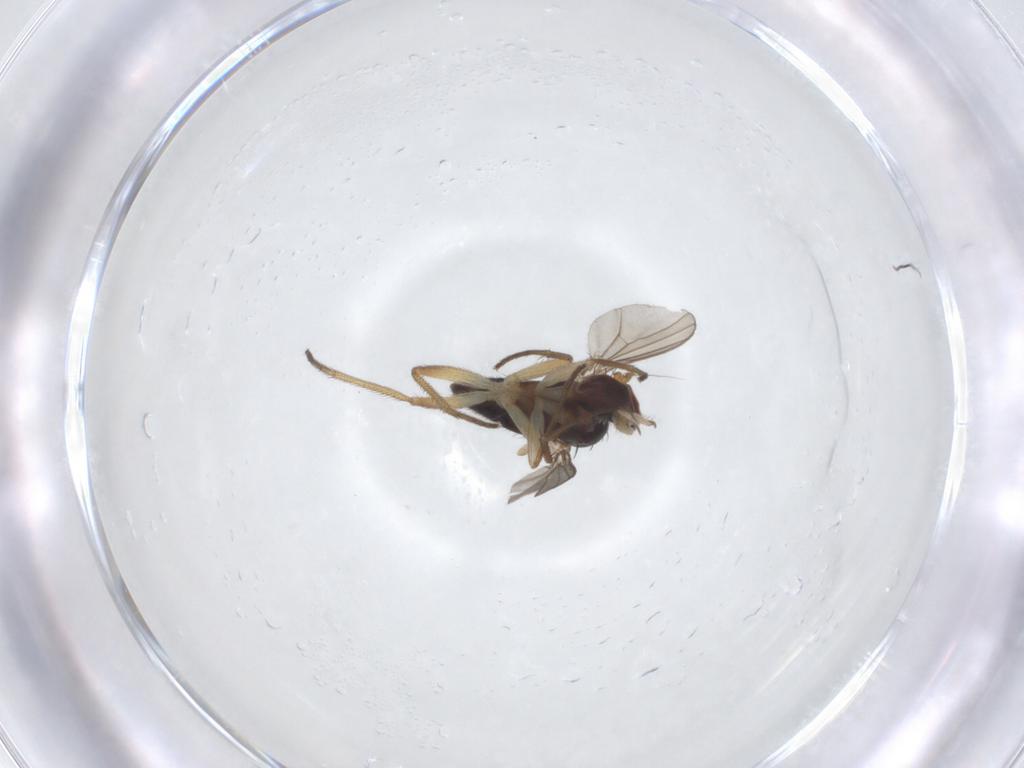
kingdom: Animalia
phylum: Arthropoda
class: Insecta
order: Diptera
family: Dolichopodidae
